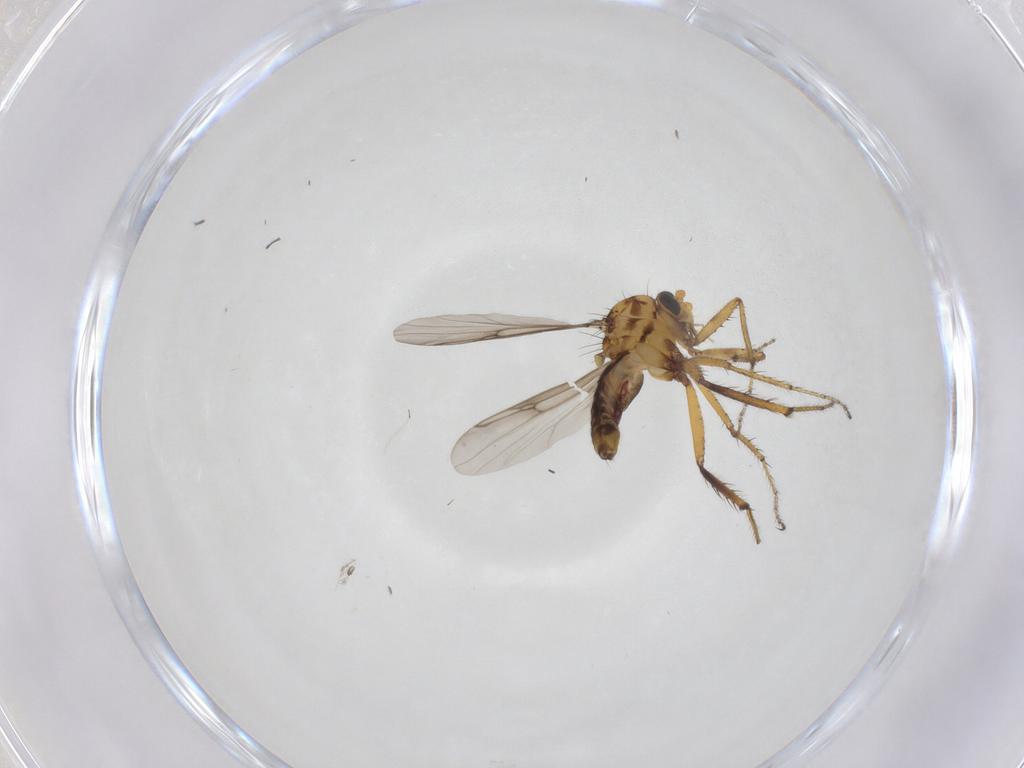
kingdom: Animalia
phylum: Arthropoda
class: Insecta
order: Diptera
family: Ceratopogonidae
